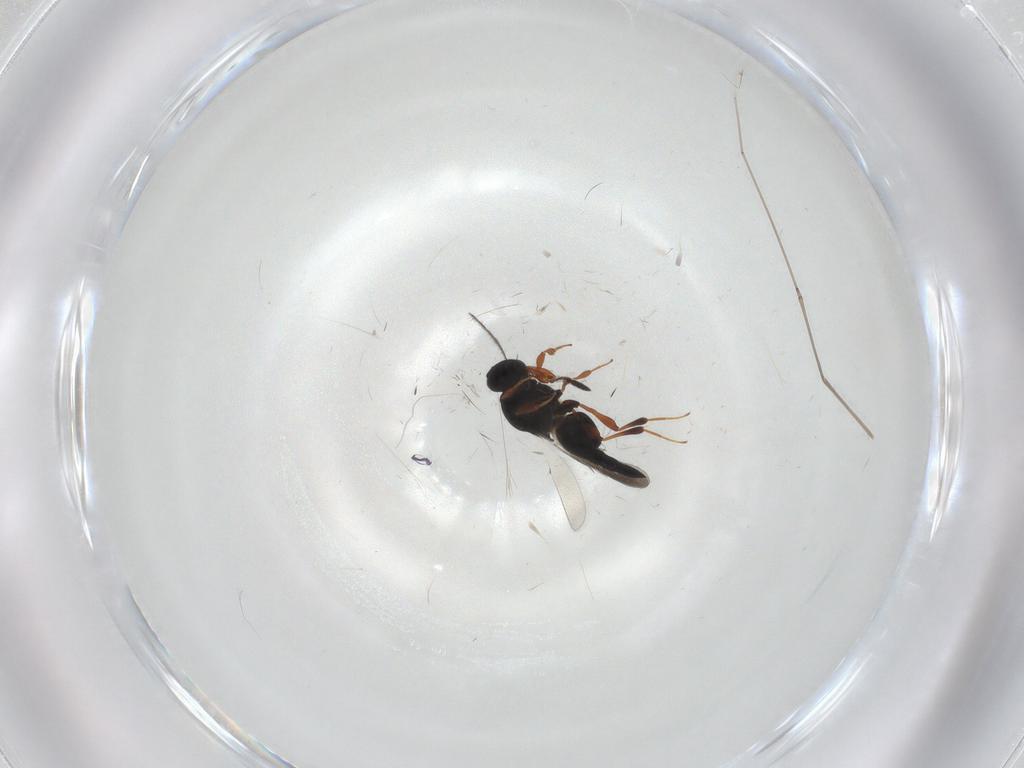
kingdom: Animalia
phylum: Arthropoda
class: Insecta
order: Hymenoptera
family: Platygastridae
